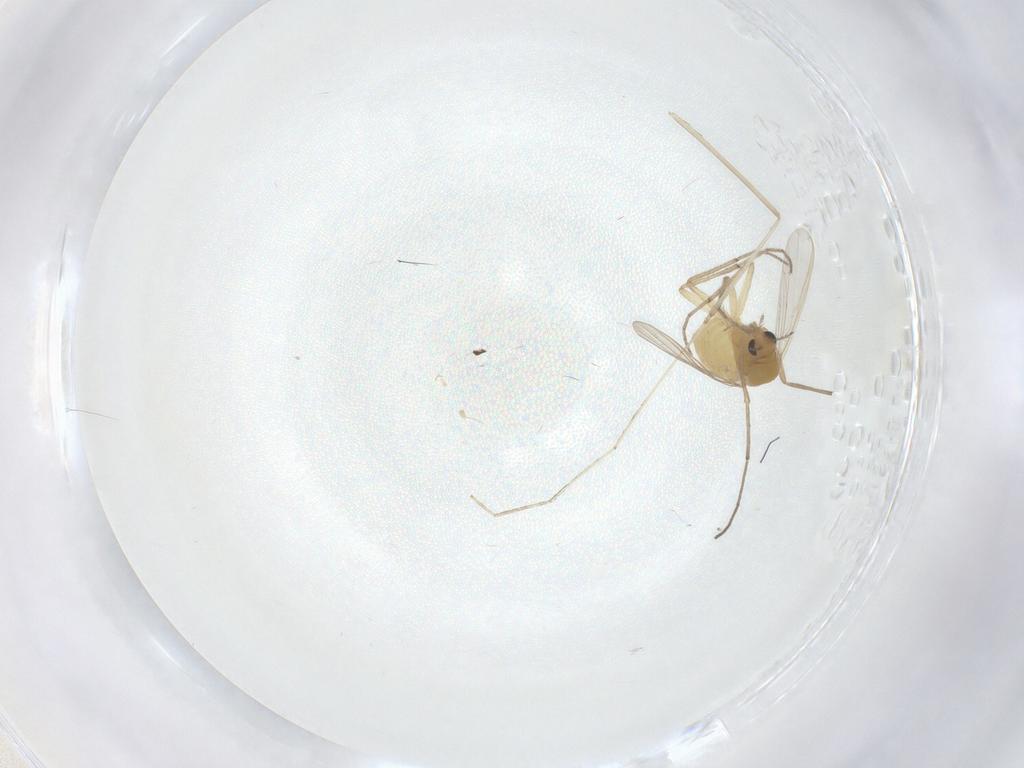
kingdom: Animalia
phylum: Arthropoda
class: Insecta
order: Diptera
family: Chironomidae
